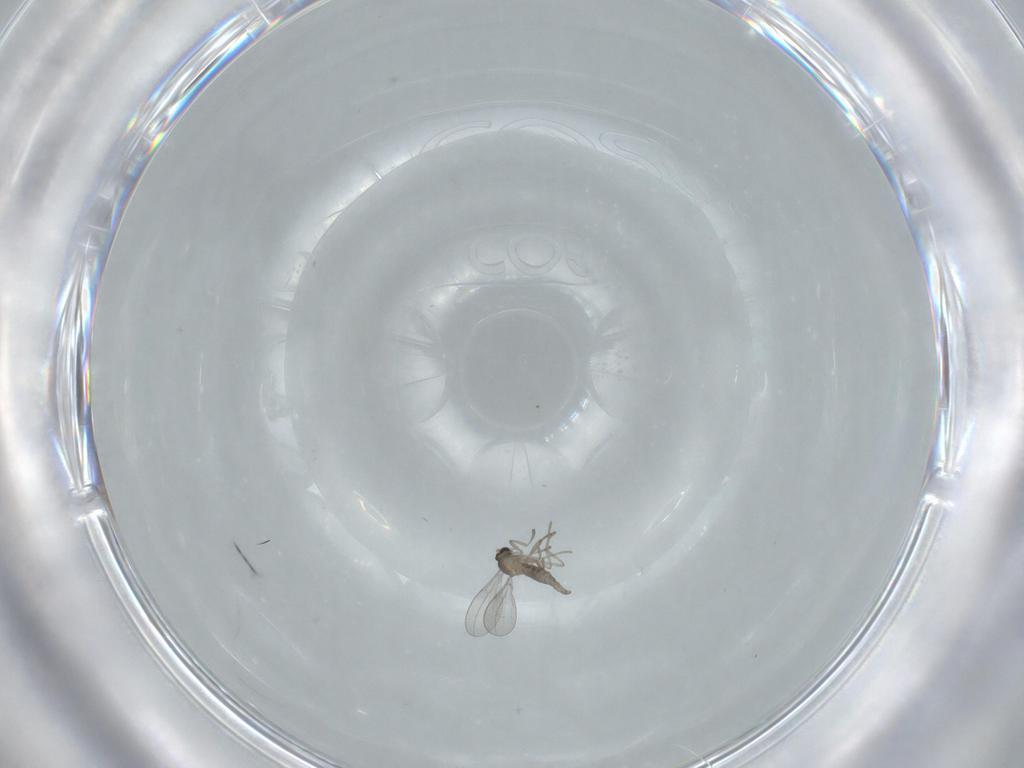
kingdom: Animalia
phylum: Arthropoda
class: Insecta
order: Diptera
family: Cecidomyiidae
